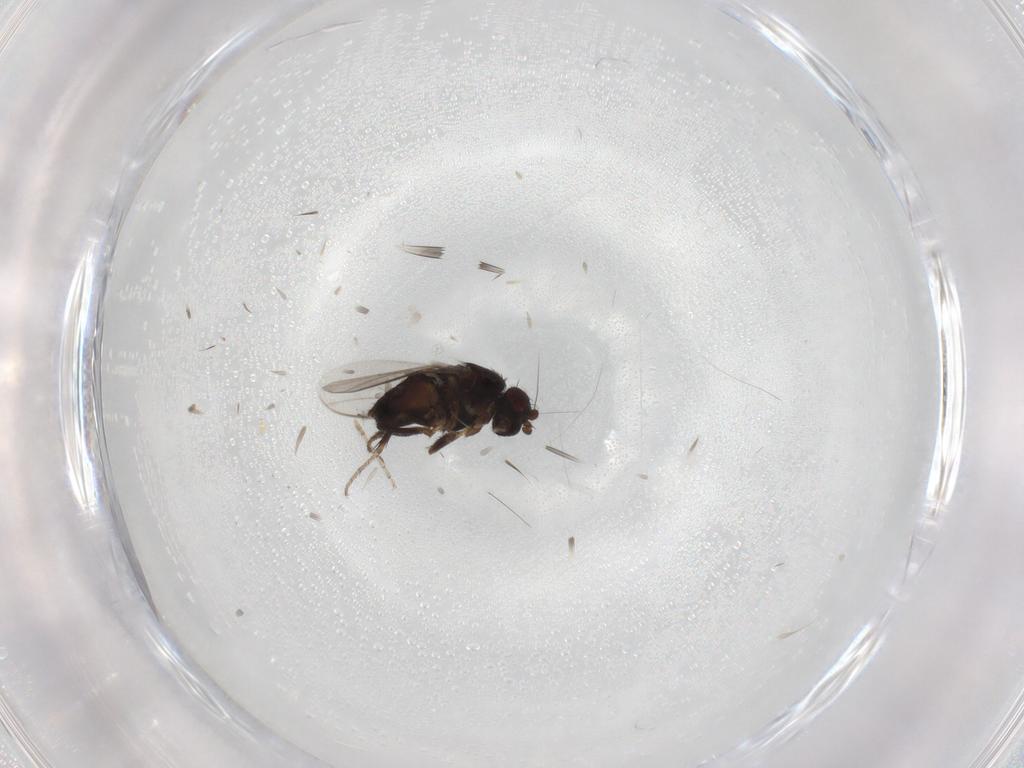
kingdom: Animalia
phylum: Arthropoda
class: Insecta
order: Diptera
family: Sphaeroceridae
